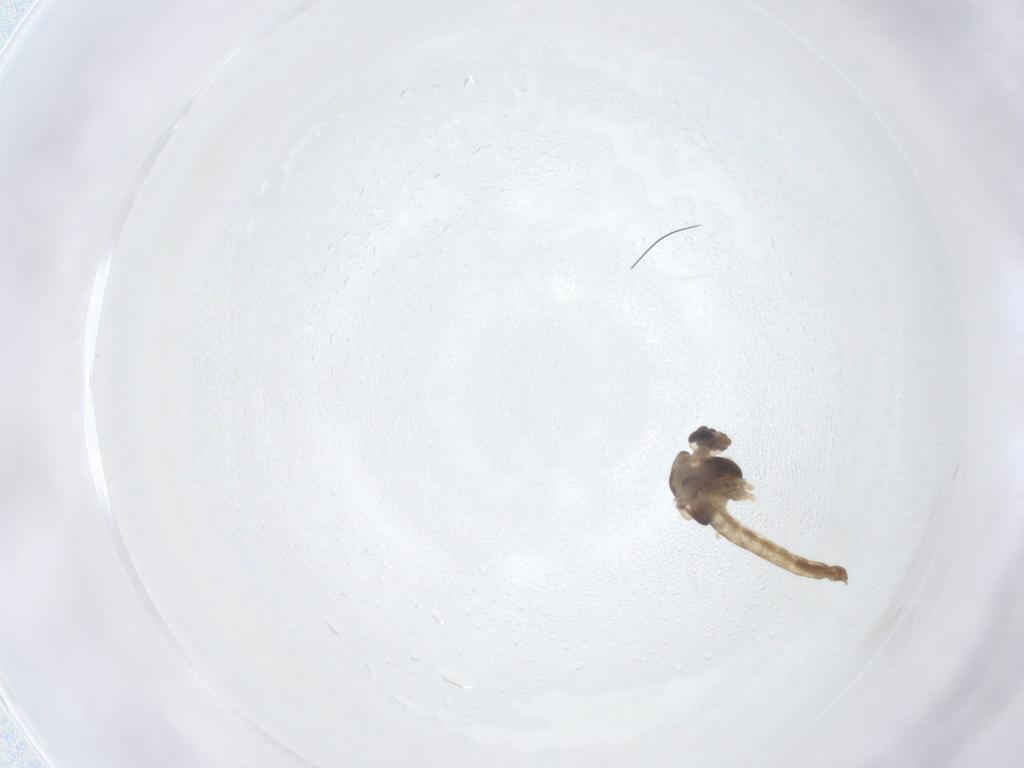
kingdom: Animalia
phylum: Arthropoda
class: Insecta
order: Diptera
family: Chironomidae
